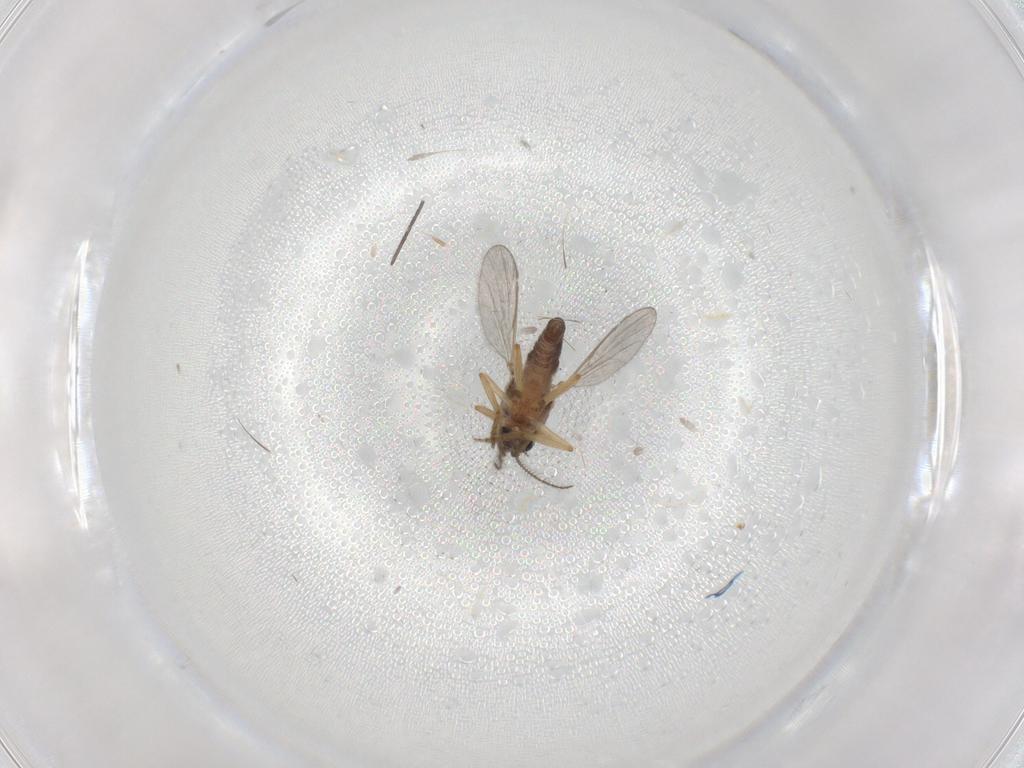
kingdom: Animalia
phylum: Arthropoda
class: Insecta
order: Diptera
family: Ceratopogonidae
